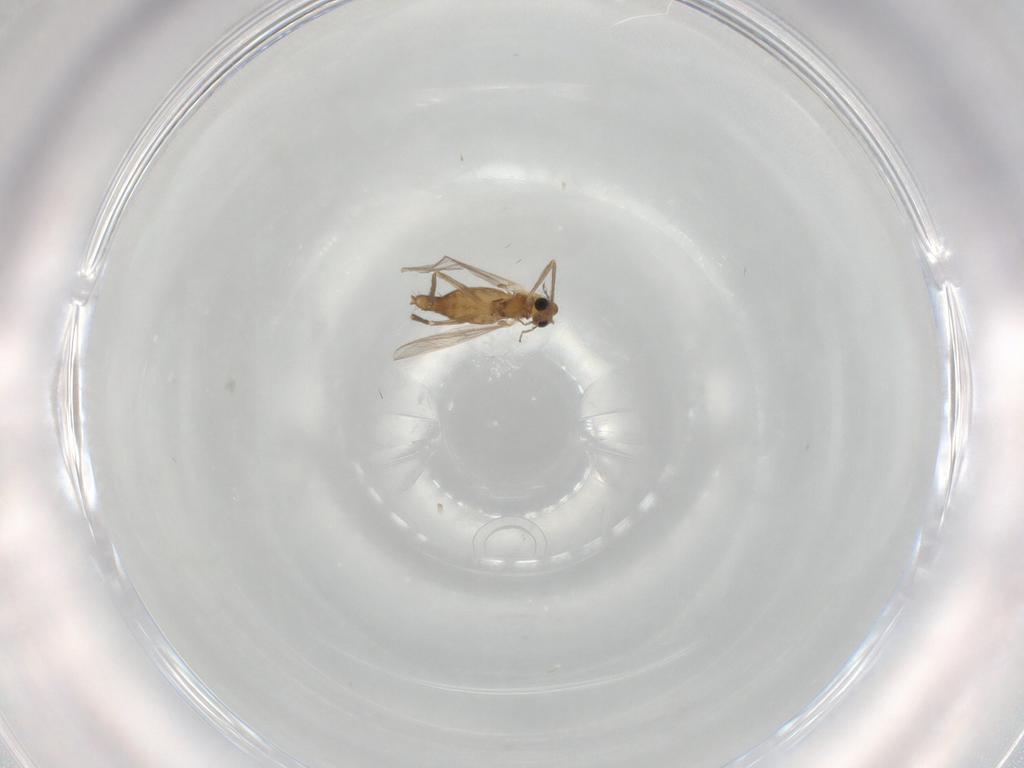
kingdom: Animalia
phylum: Arthropoda
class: Insecta
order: Diptera
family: Chironomidae
